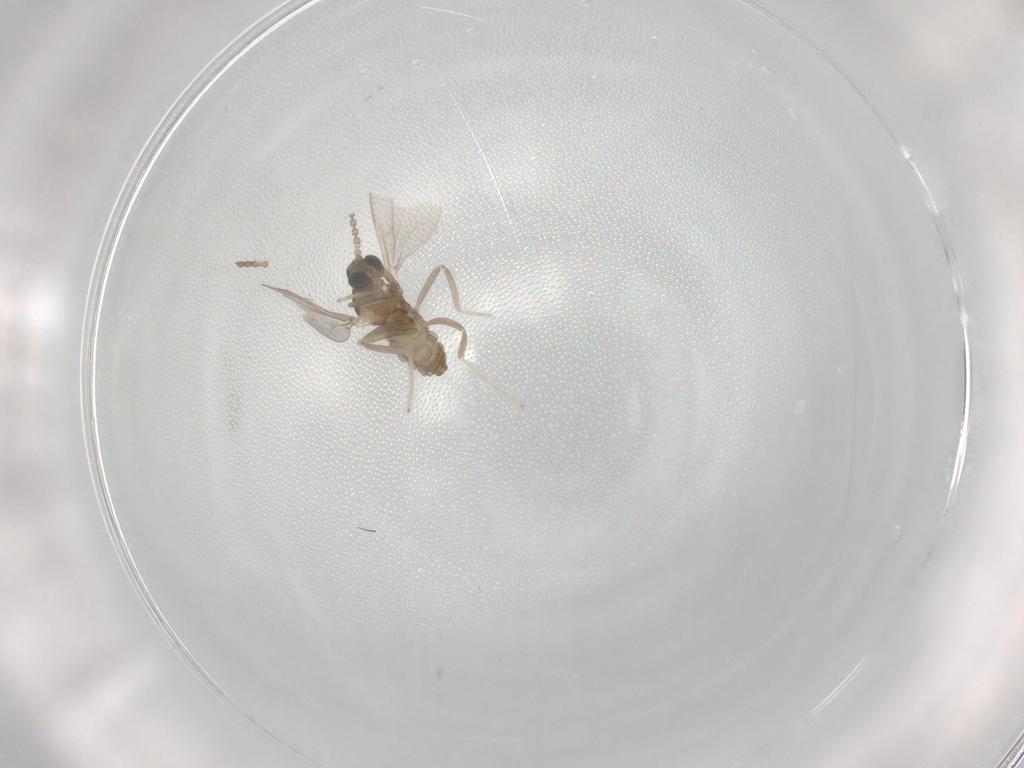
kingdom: Animalia
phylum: Arthropoda
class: Insecta
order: Diptera
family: Cecidomyiidae
